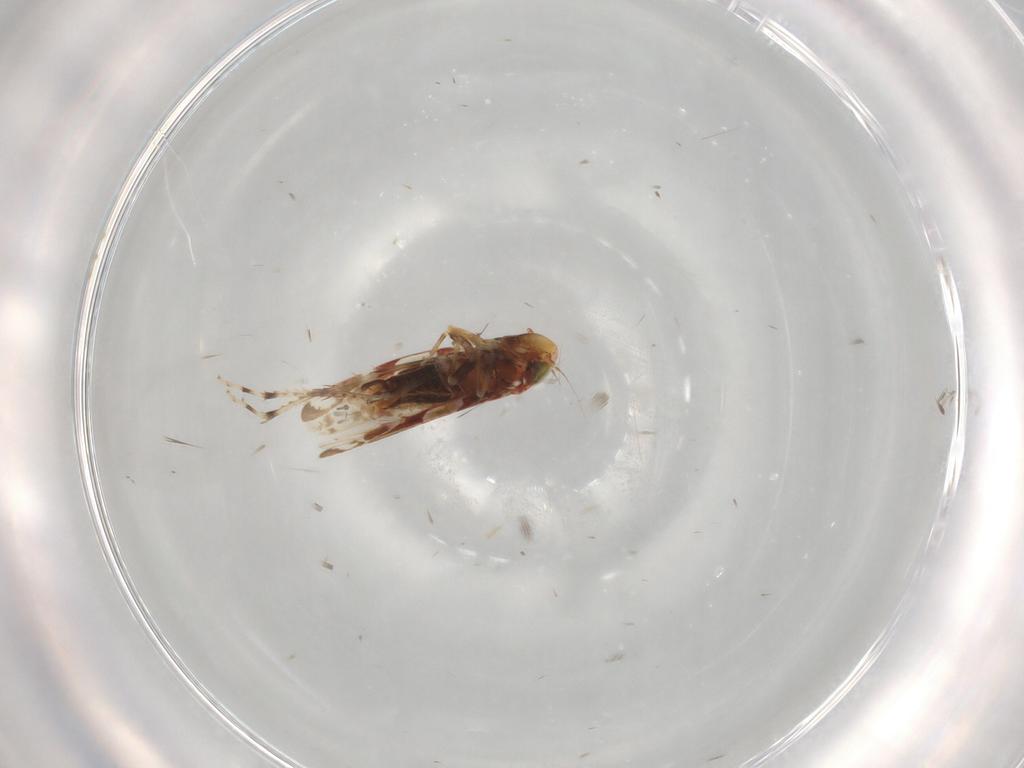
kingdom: Animalia
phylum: Arthropoda
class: Insecta
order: Hemiptera
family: Cicadellidae
